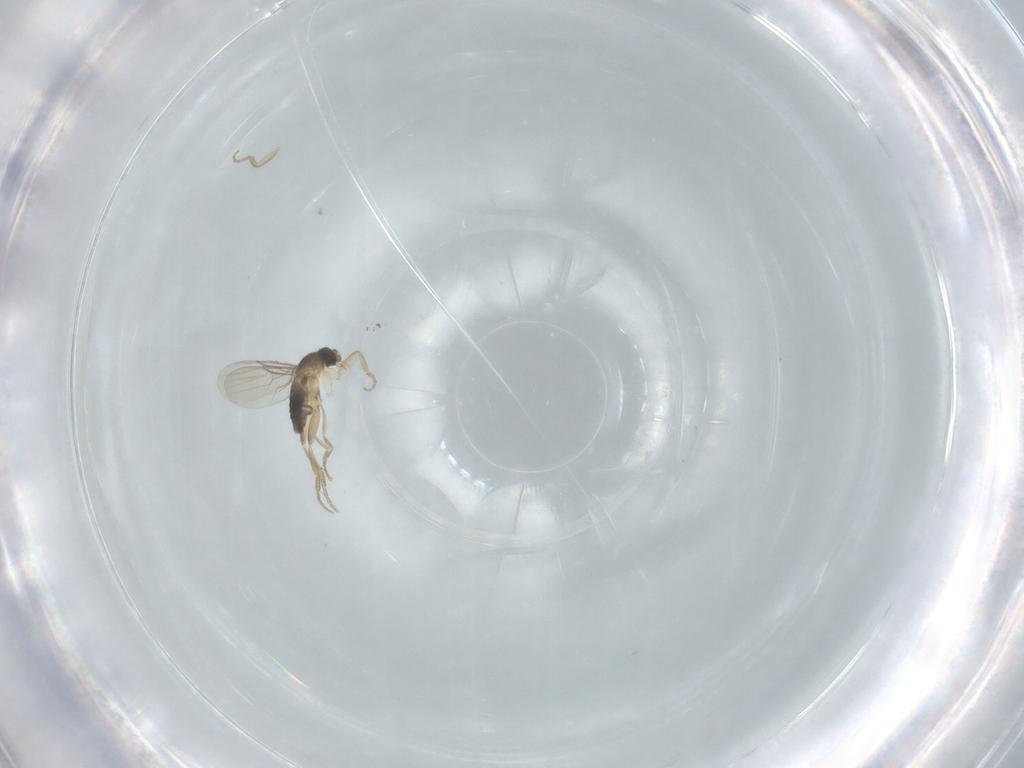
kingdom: Animalia
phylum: Arthropoda
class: Insecta
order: Diptera
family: Phoridae
